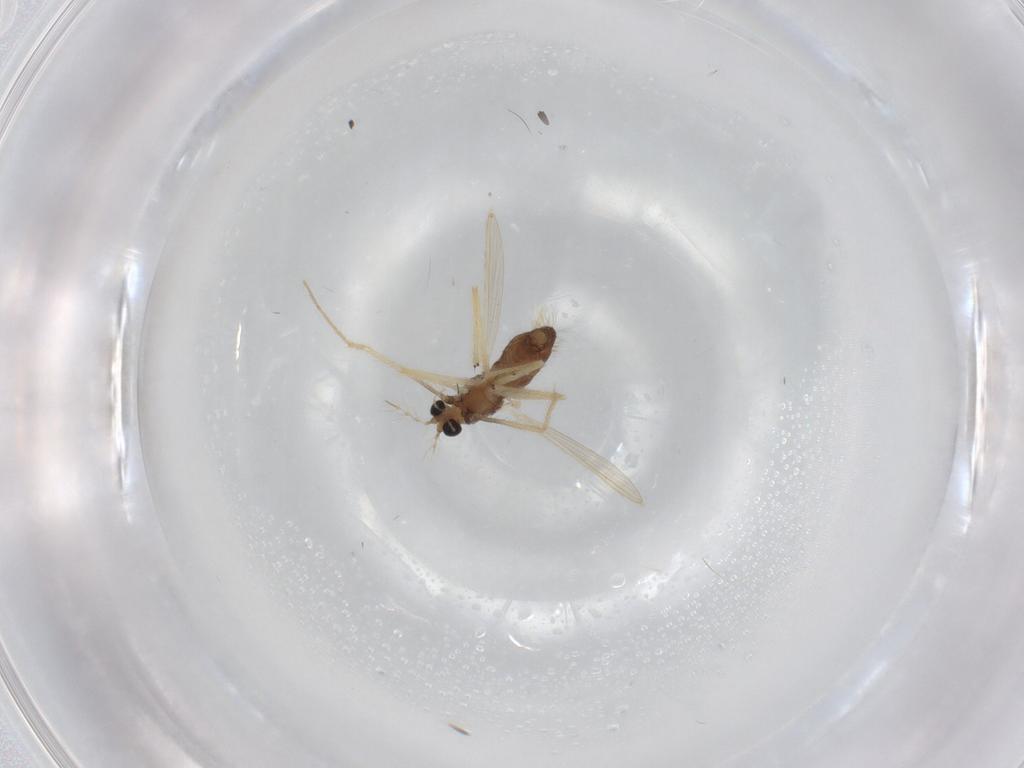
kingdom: Animalia
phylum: Arthropoda
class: Insecta
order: Diptera
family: Chironomidae
